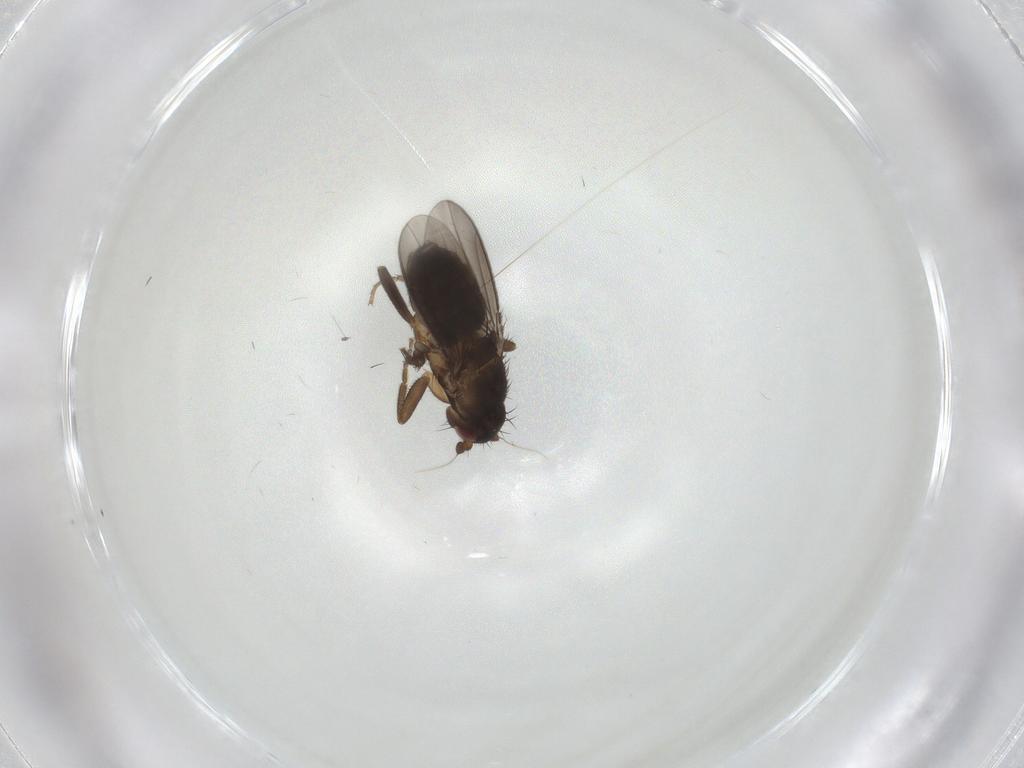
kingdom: Animalia
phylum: Arthropoda
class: Insecta
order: Diptera
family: Sphaeroceridae
